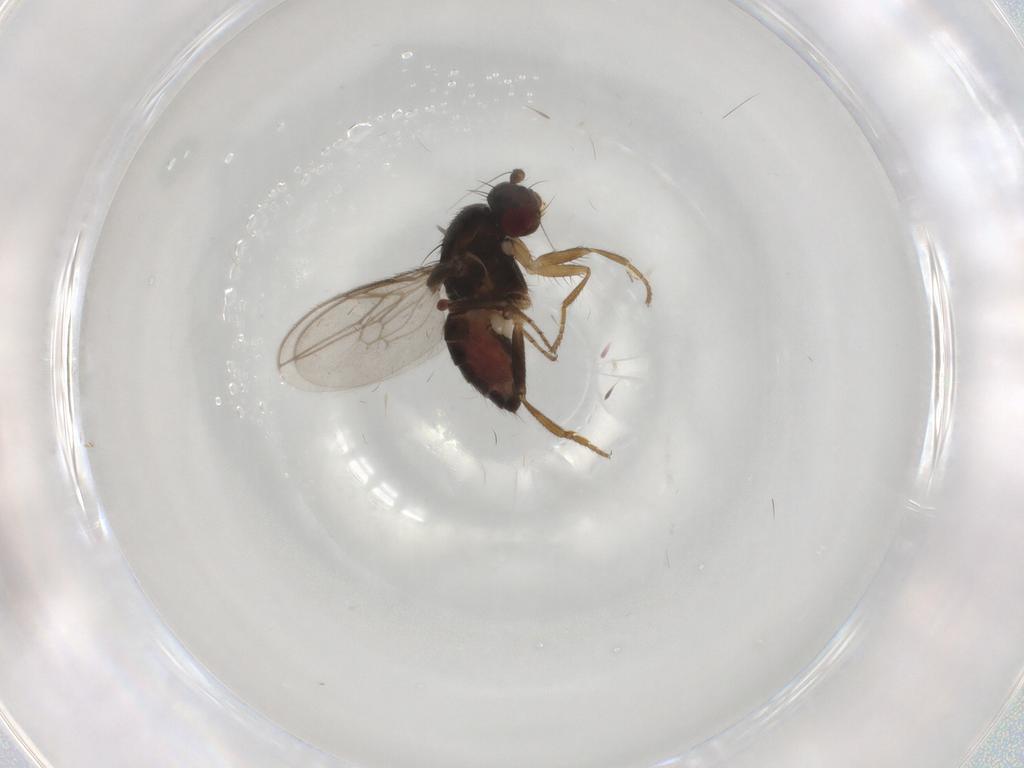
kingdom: Animalia
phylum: Arthropoda
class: Insecta
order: Diptera
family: Sphaeroceridae
